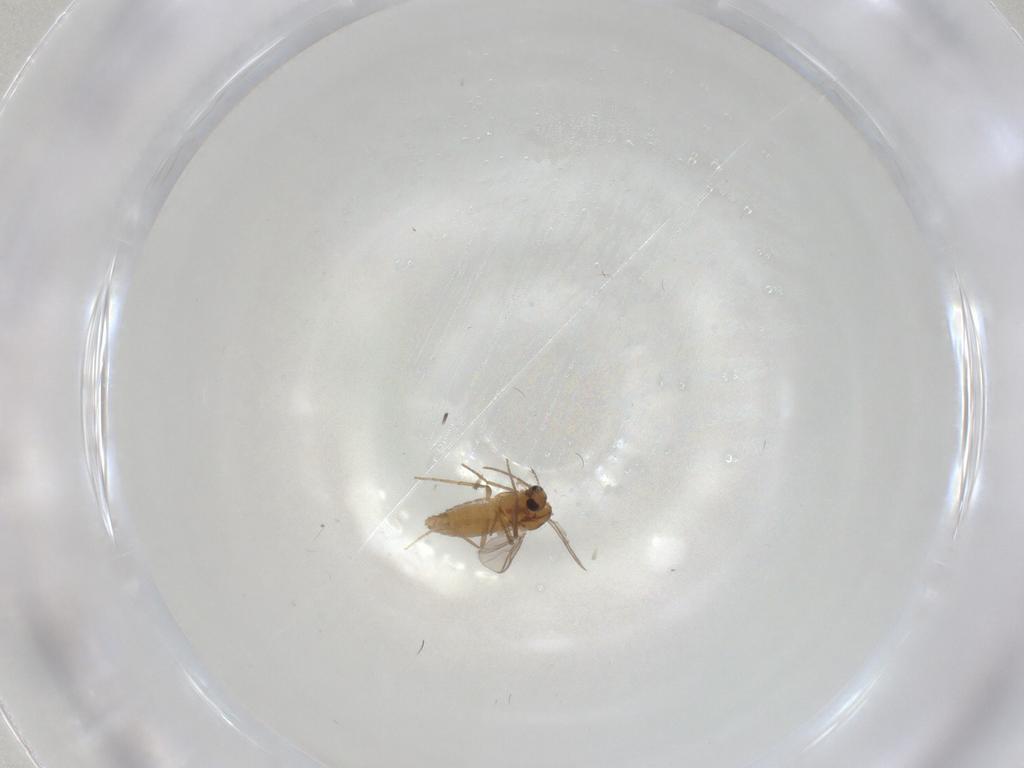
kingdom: Animalia
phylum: Arthropoda
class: Insecta
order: Diptera
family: Chironomidae
